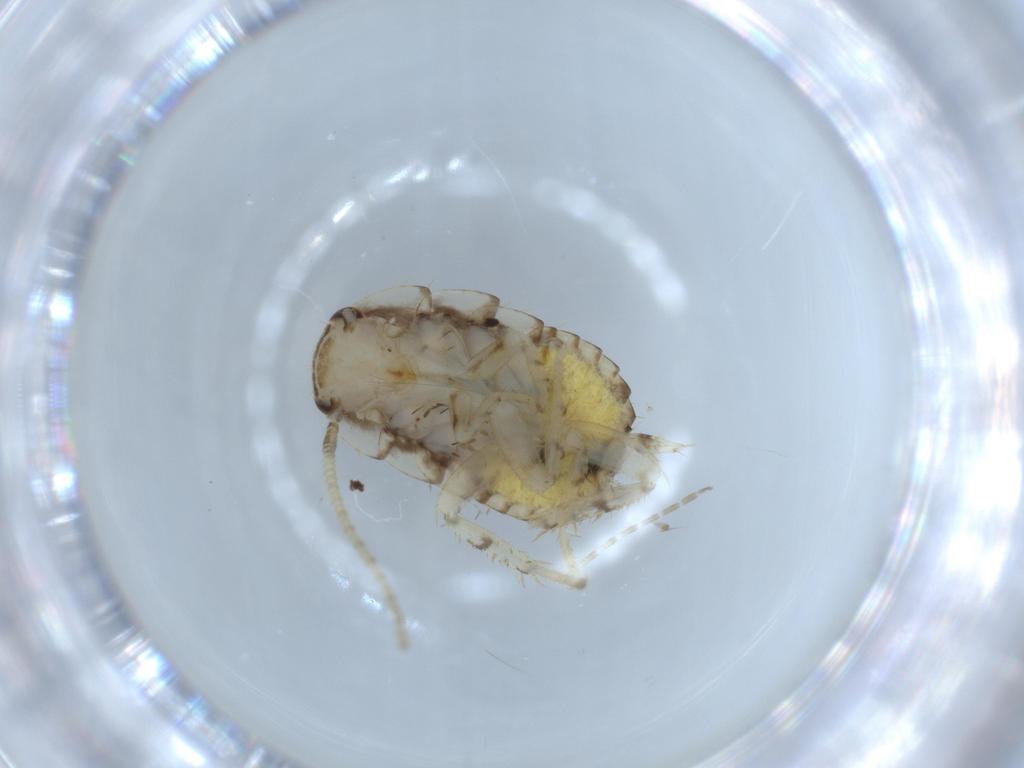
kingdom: Animalia
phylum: Arthropoda
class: Insecta
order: Blattodea
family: Ectobiidae
